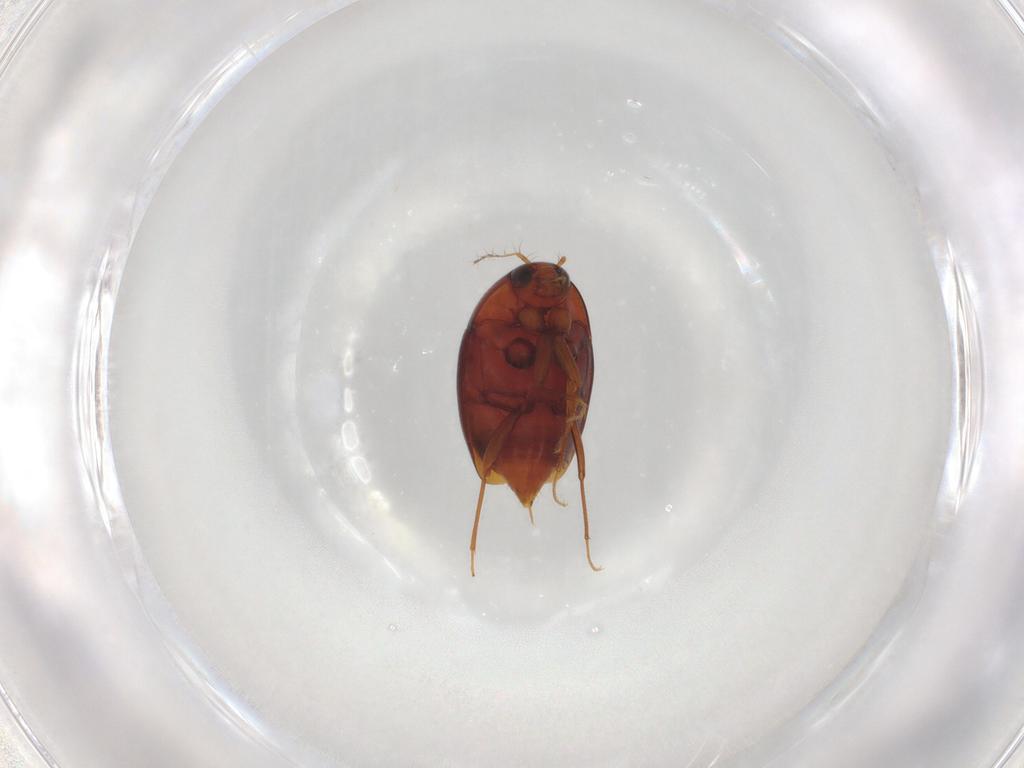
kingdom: Animalia
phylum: Arthropoda
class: Insecta
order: Coleoptera
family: Staphylinidae
